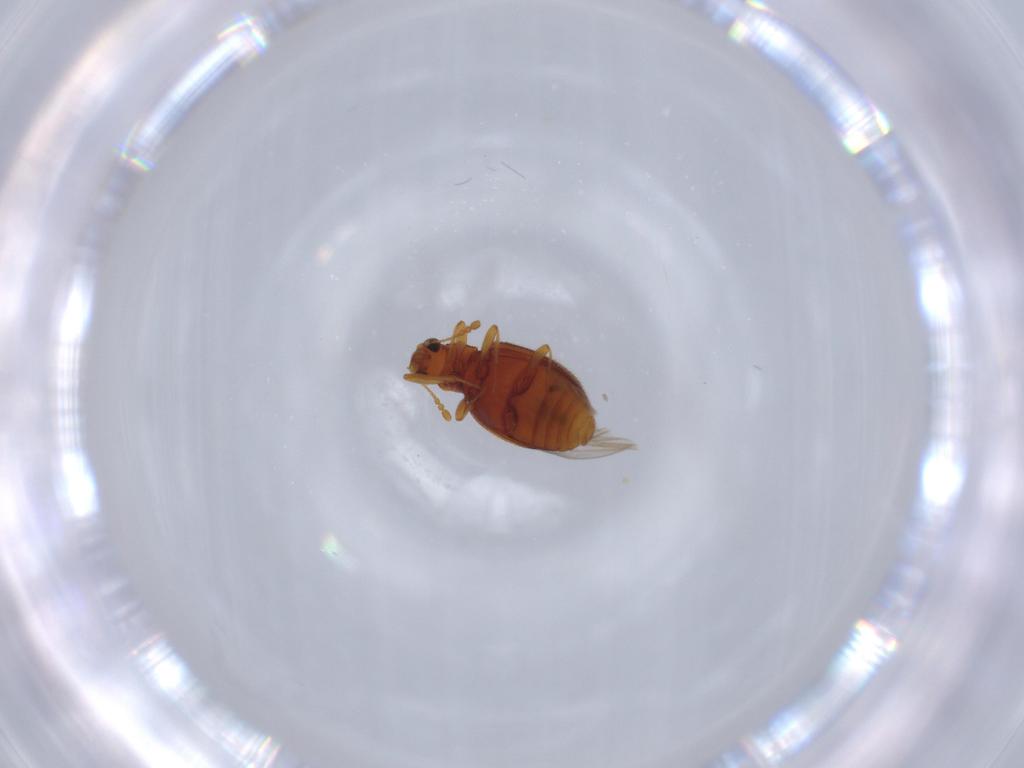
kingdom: Animalia
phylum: Arthropoda
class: Insecta
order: Coleoptera
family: Latridiidae
